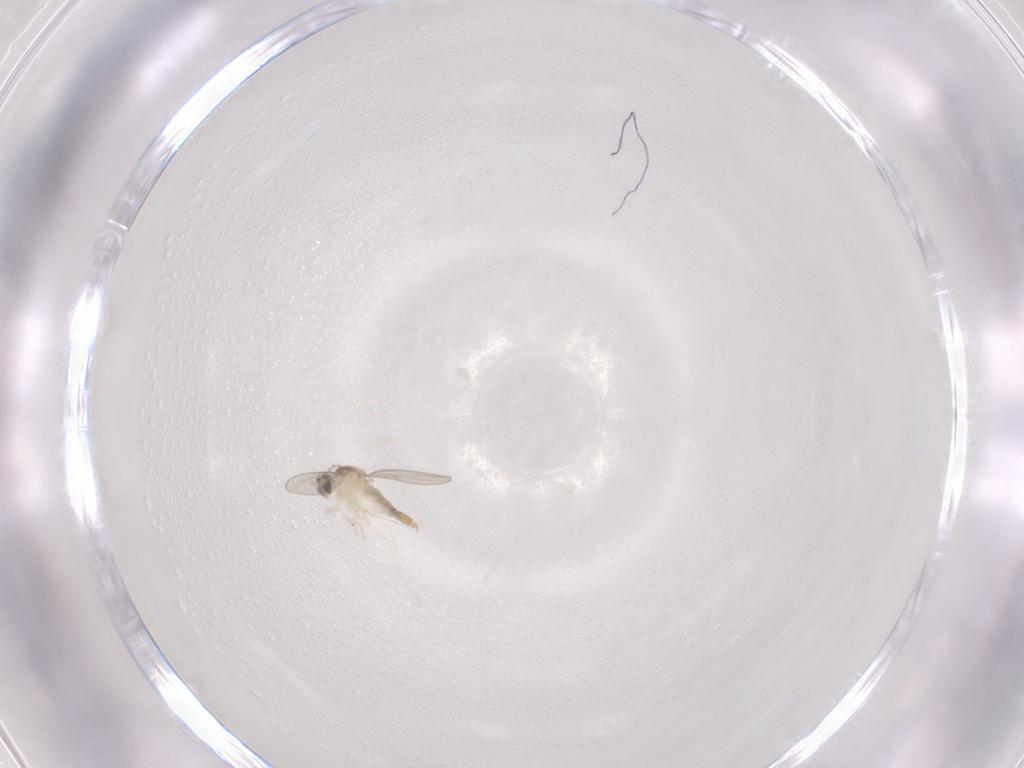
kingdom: Animalia
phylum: Arthropoda
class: Insecta
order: Diptera
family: Cecidomyiidae
